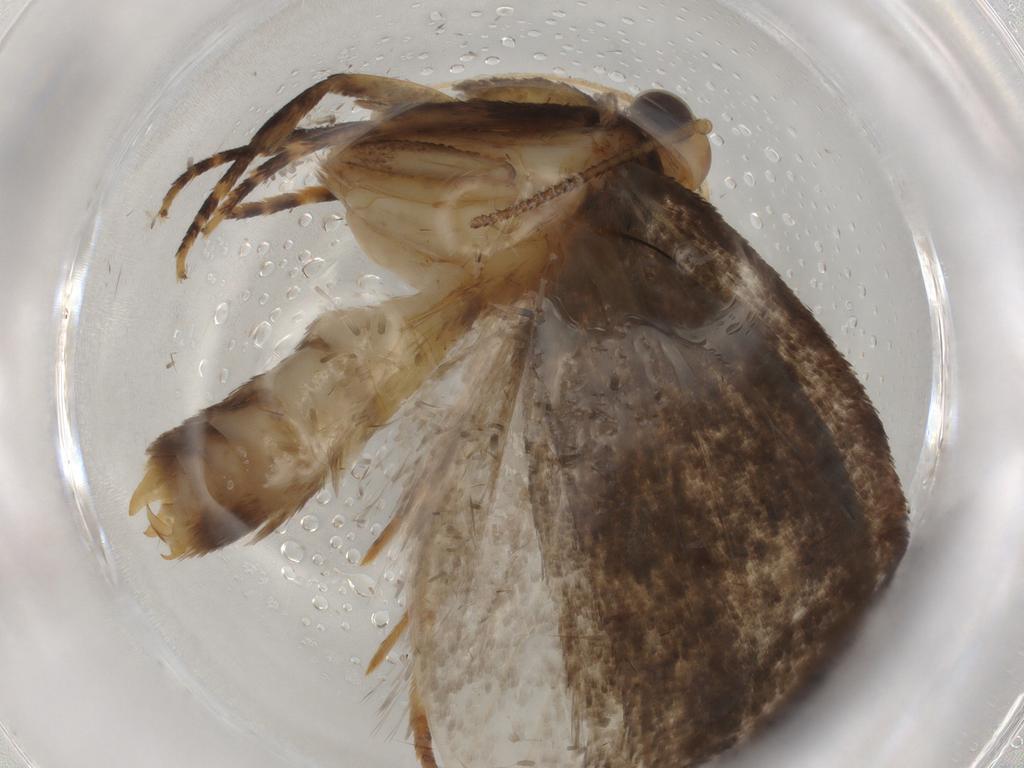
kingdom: Animalia
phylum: Arthropoda
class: Insecta
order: Lepidoptera
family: Oecophoridae
